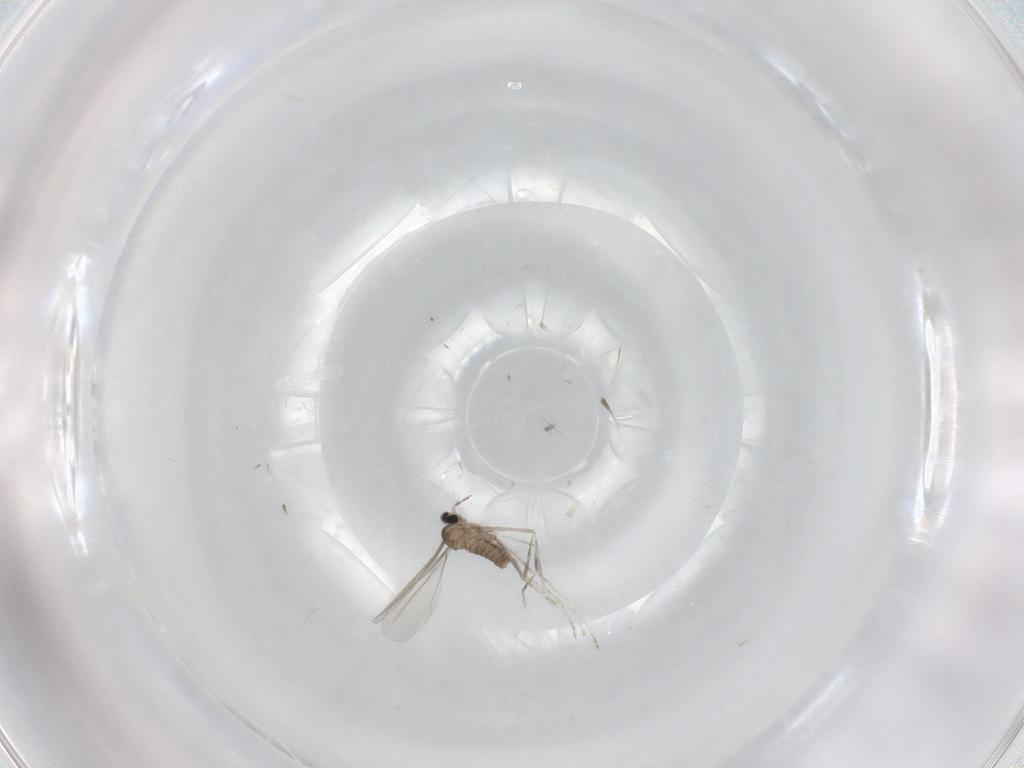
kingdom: Animalia
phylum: Arthropoda
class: Insecta
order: Diptera
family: Cecidomyiidae
